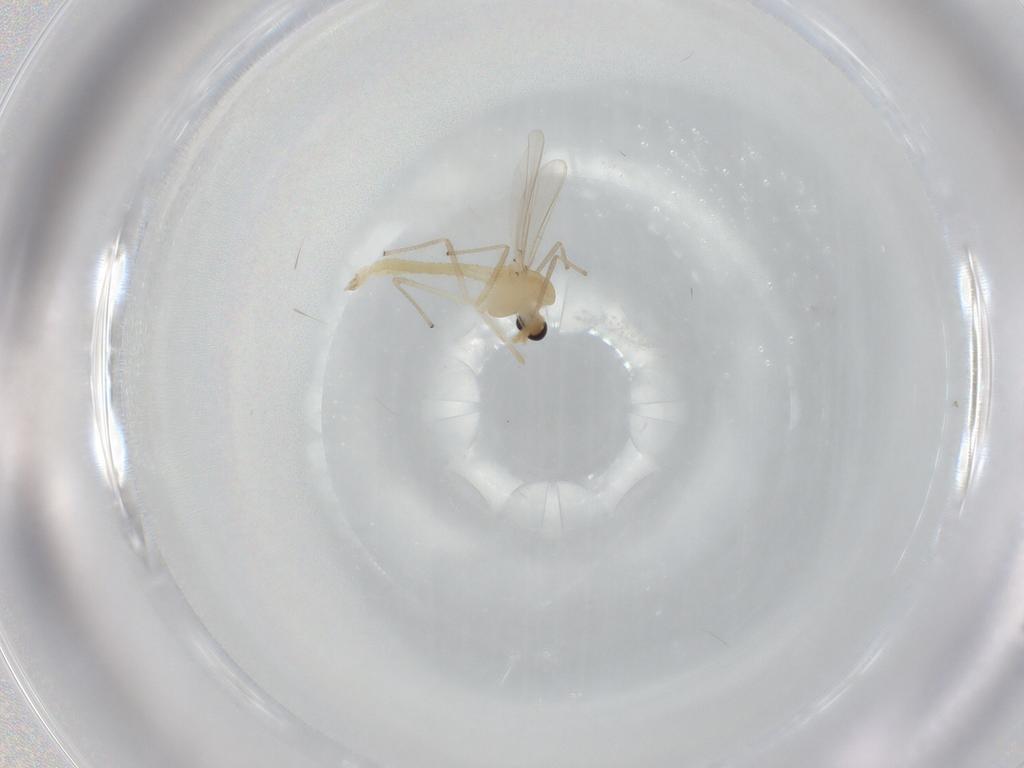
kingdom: Animalia
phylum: Arthropoda
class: Insecta
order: Diptera
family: Chironomidae
